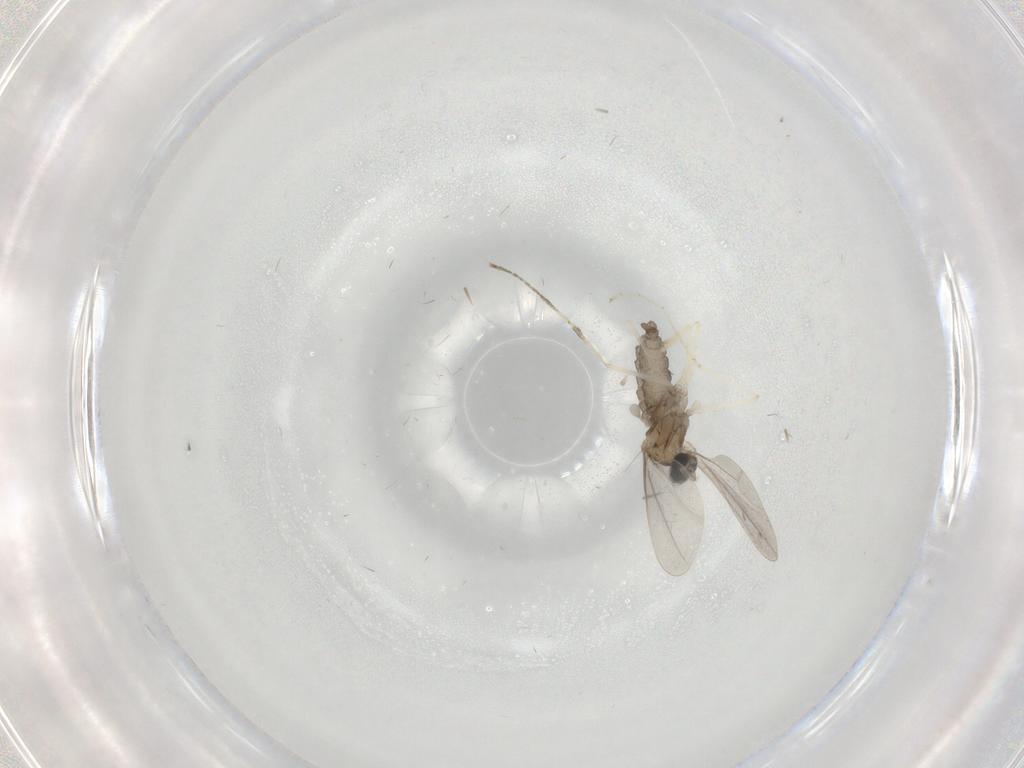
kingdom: Animalia
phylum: Arthropoda
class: Insecta
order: Diptera
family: Ceratopogonidae
